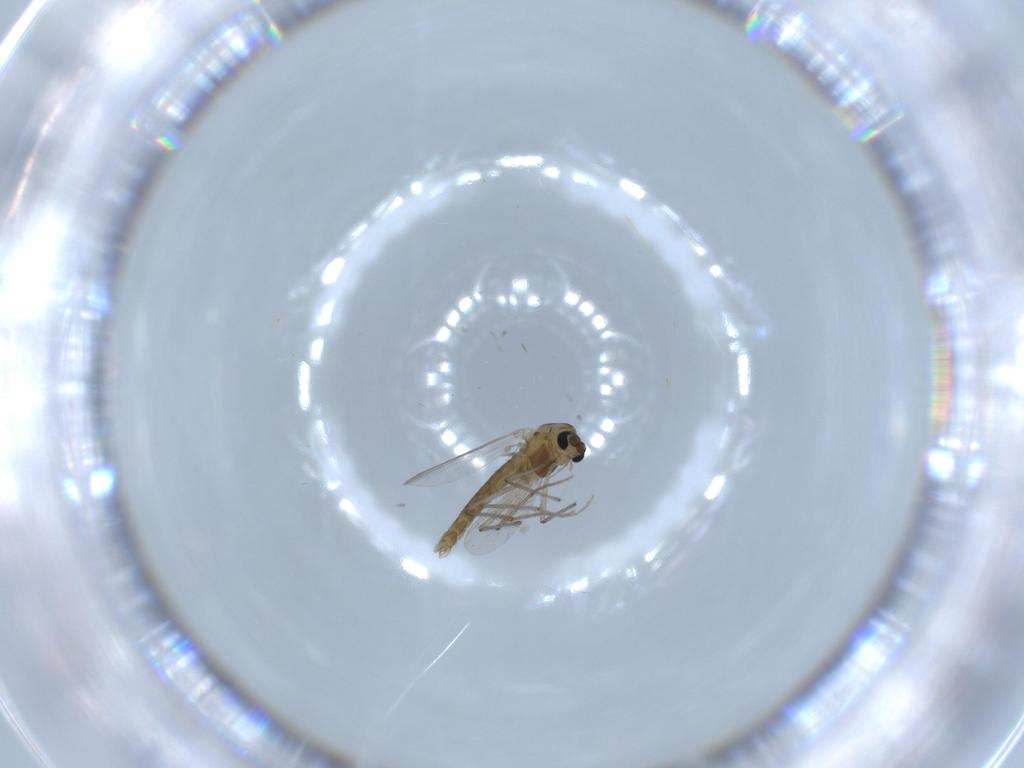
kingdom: Animalia
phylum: Arthropoda
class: Insecta
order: Diptera
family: Chironomidae
